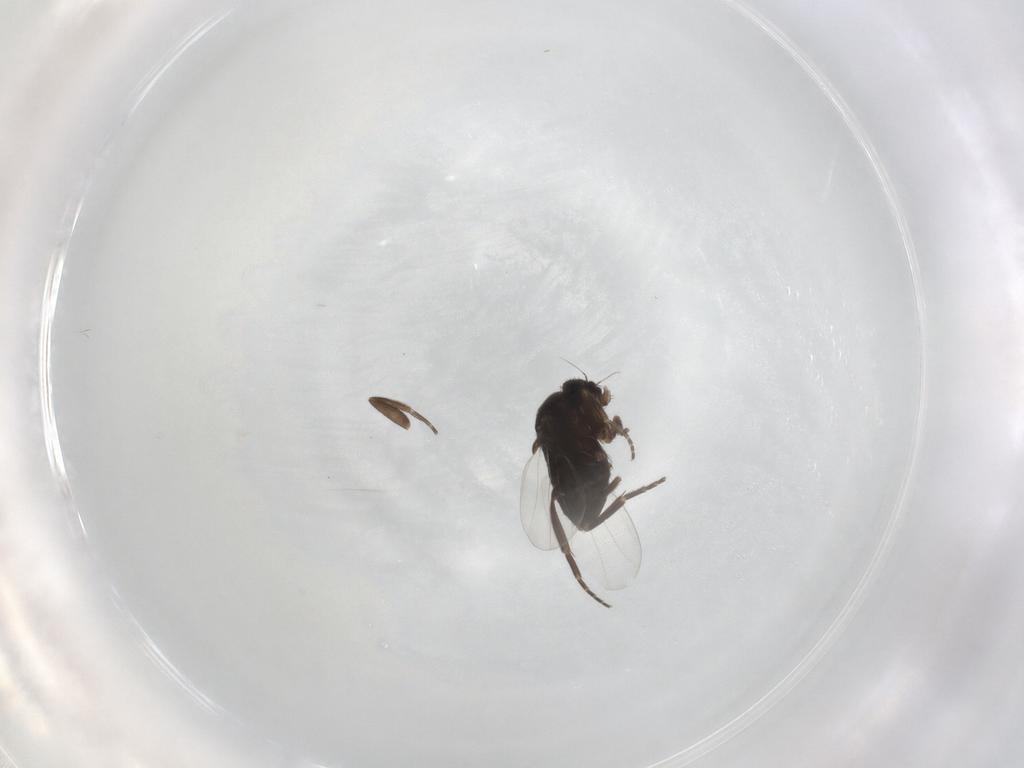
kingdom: Animalia
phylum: Arthropoda
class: Insecta
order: Diptera
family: Phoridae
